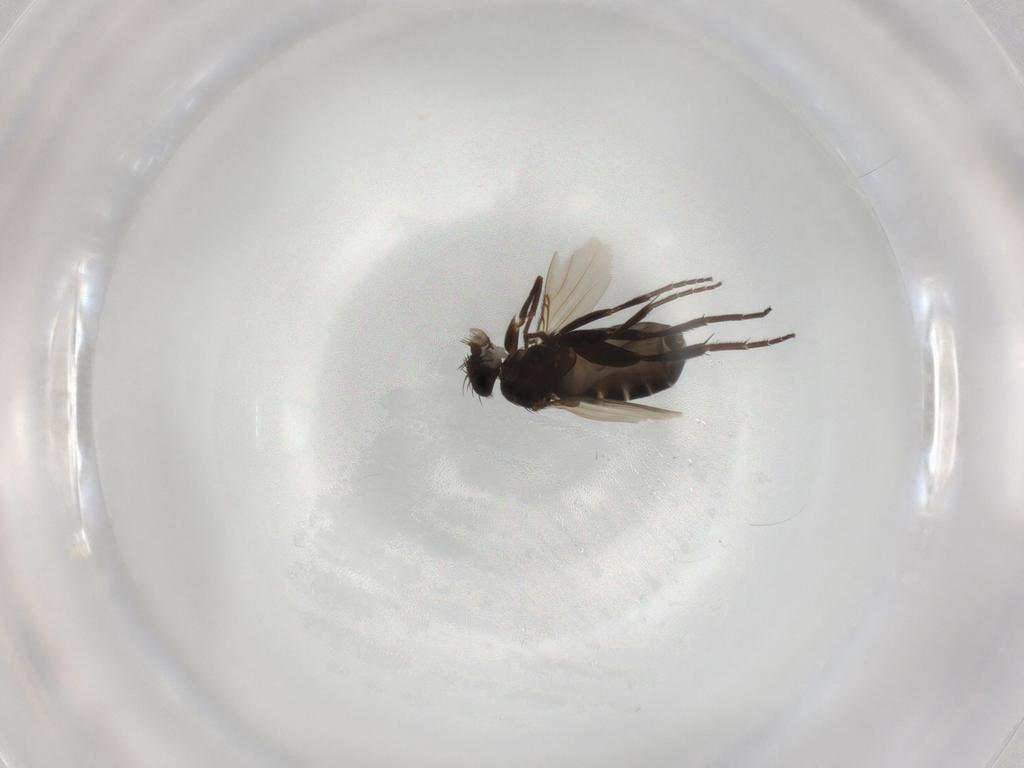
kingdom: Animalia
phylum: Arthropoda
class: Insecta
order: Diptera
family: Phoridae
